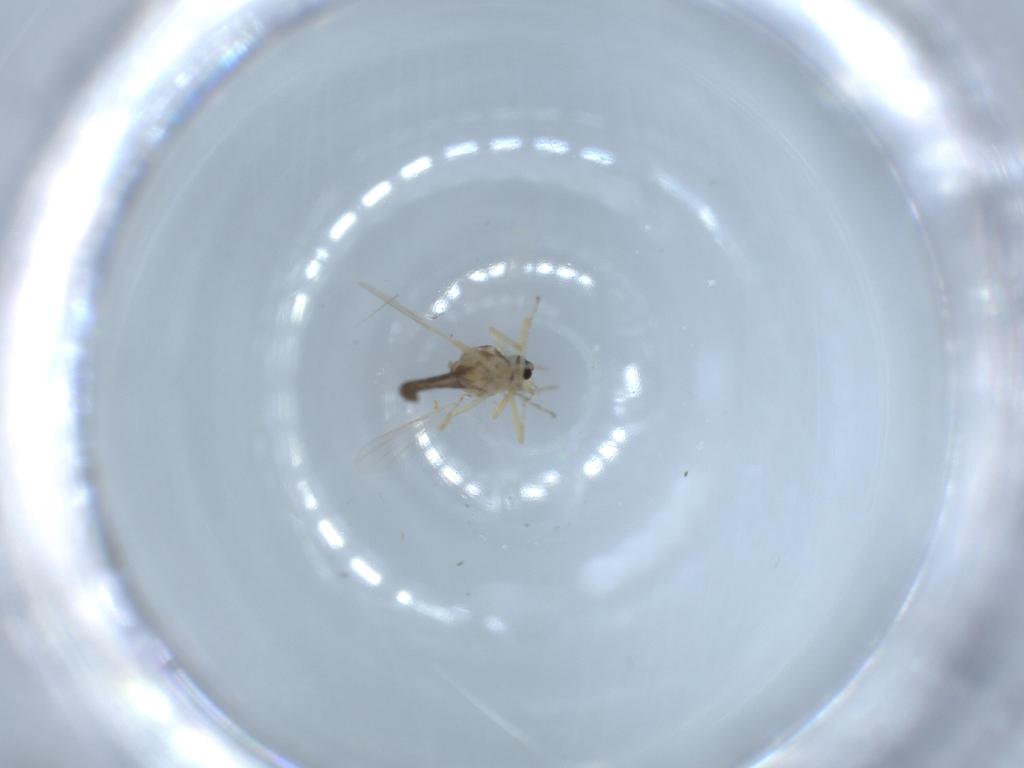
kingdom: Animalia
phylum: Arthropoda
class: Insecta
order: Diptera
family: Ceratopogonidae
